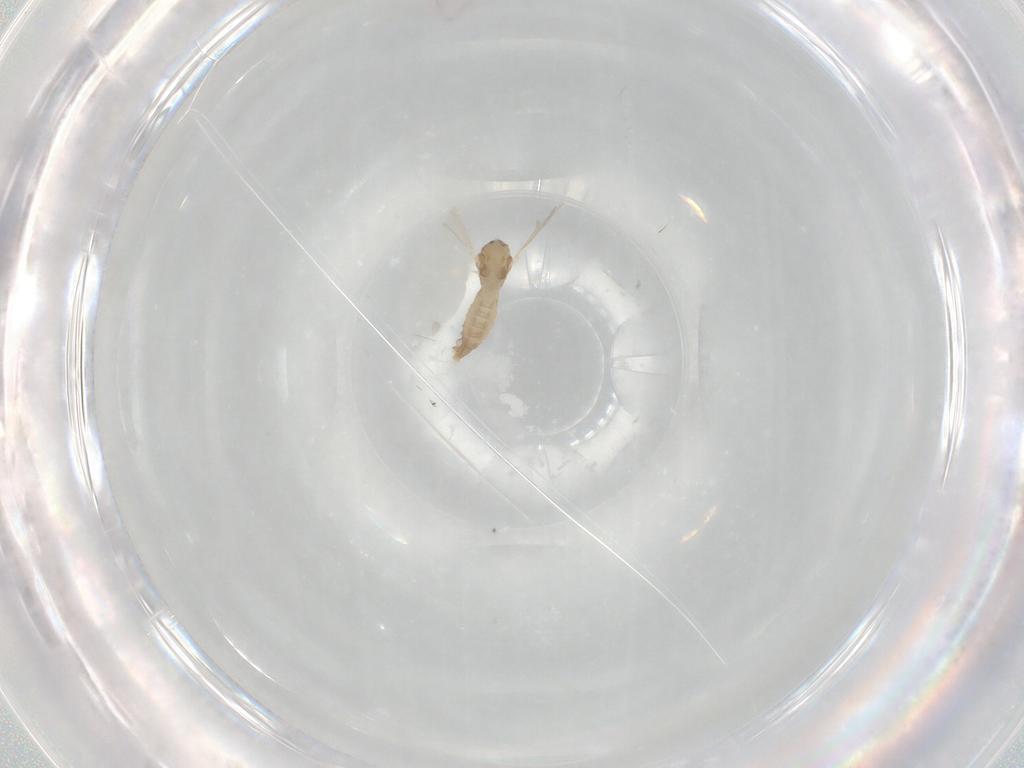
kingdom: Animalia
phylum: Arthropoda
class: Insecta
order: Diptera
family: Cecidomyiidae
